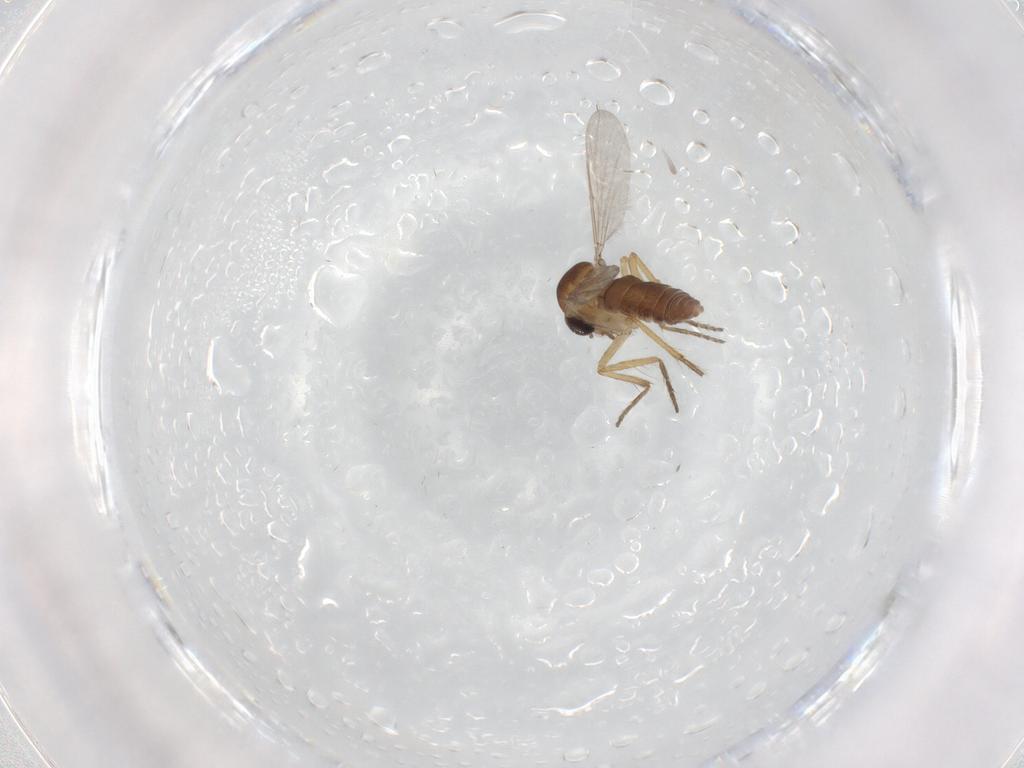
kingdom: Animalia
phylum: Arthropoda
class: Insecta
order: Diptera
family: Ceratopogonidae
